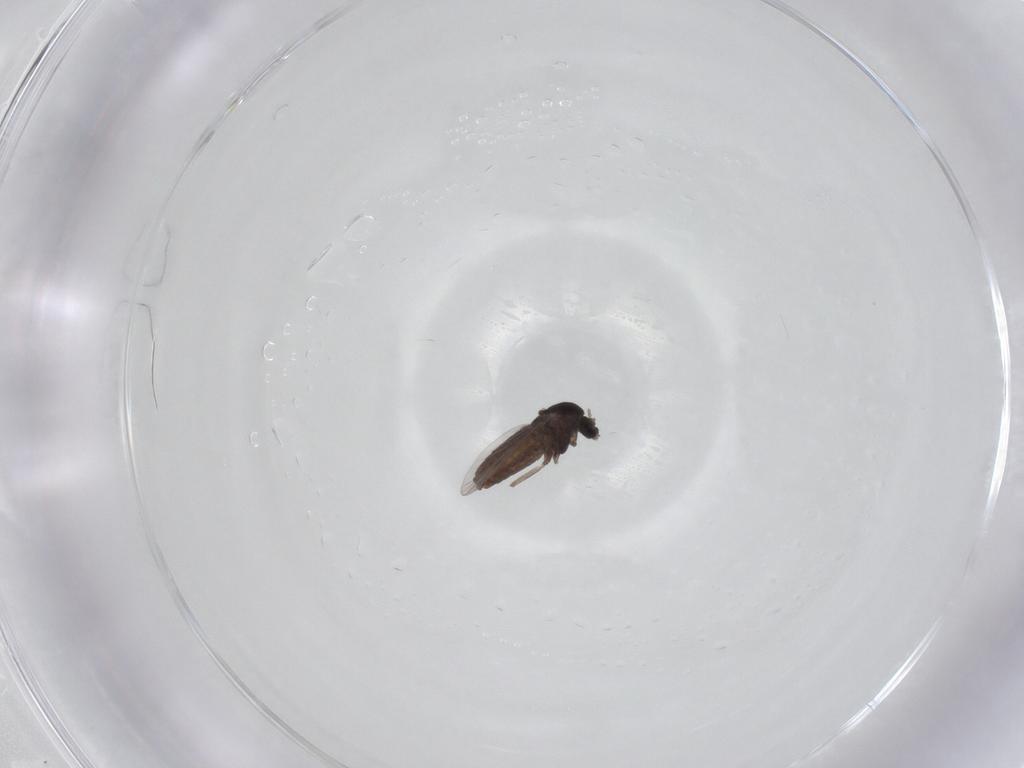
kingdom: Animalia
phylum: Arthropoda
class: Insecta
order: Diptera
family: Chironomidae
